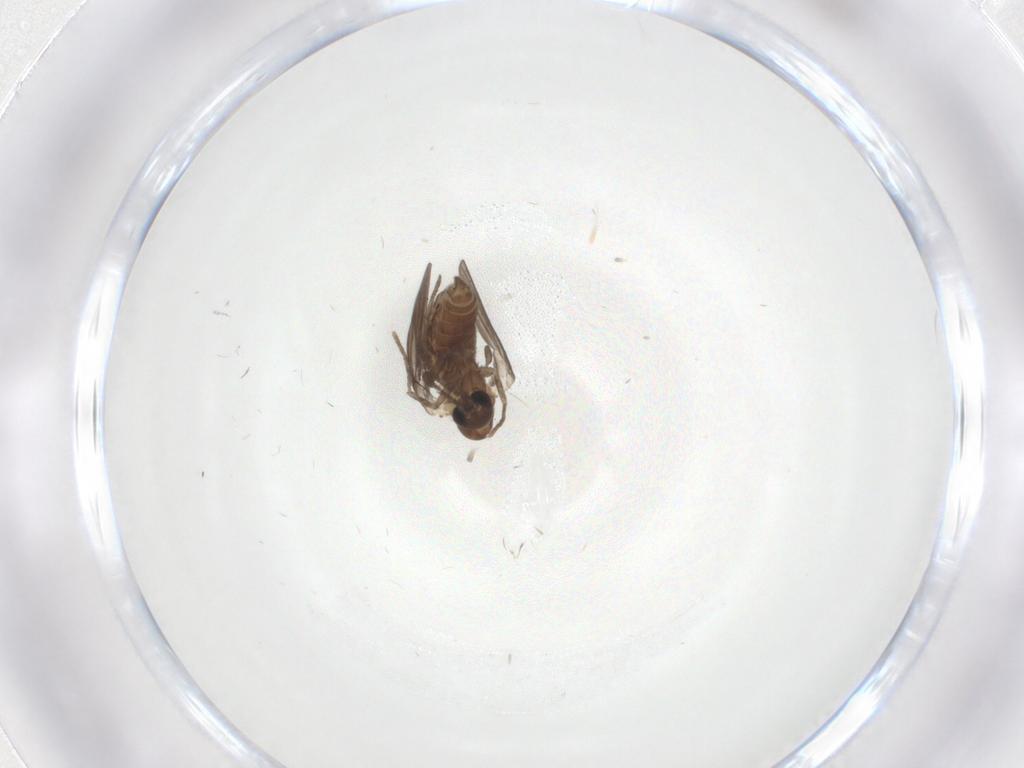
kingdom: Animalia
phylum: Arthropoda
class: Insecta
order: Diptera
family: Psychodidae
